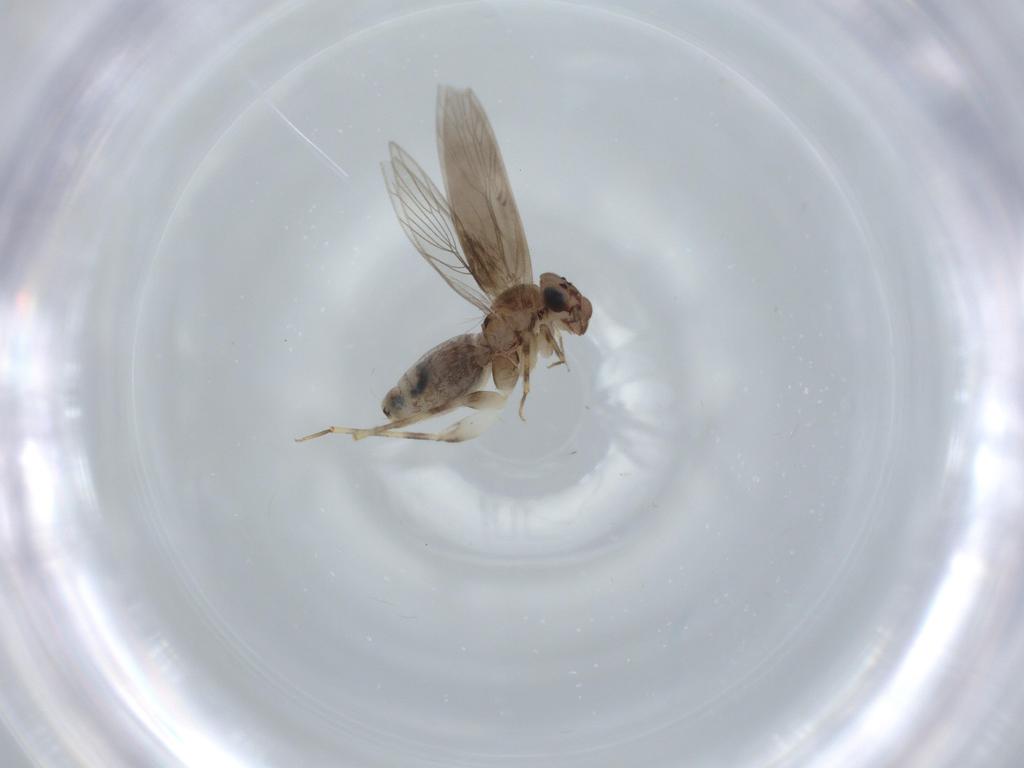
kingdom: Animalia
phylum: Arthropoda
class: Insecta
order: Psocodea
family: Lepidopsocidae
